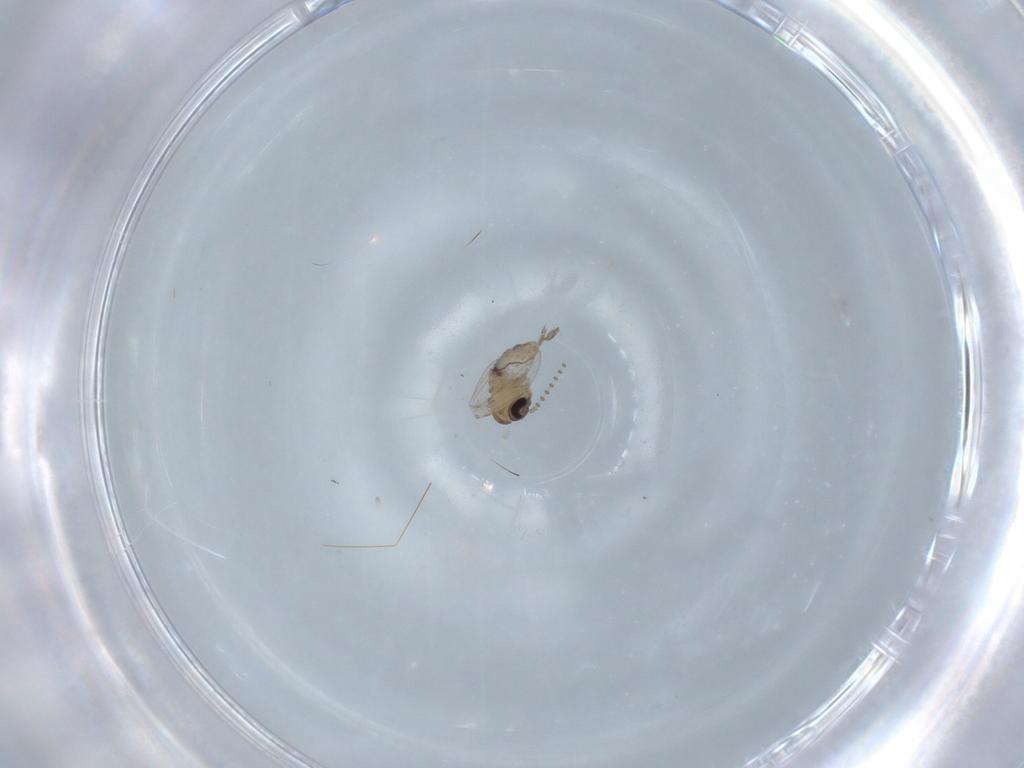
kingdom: Animalia
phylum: Arthropoda
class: Insecta
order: Diptera
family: Psychodidae
